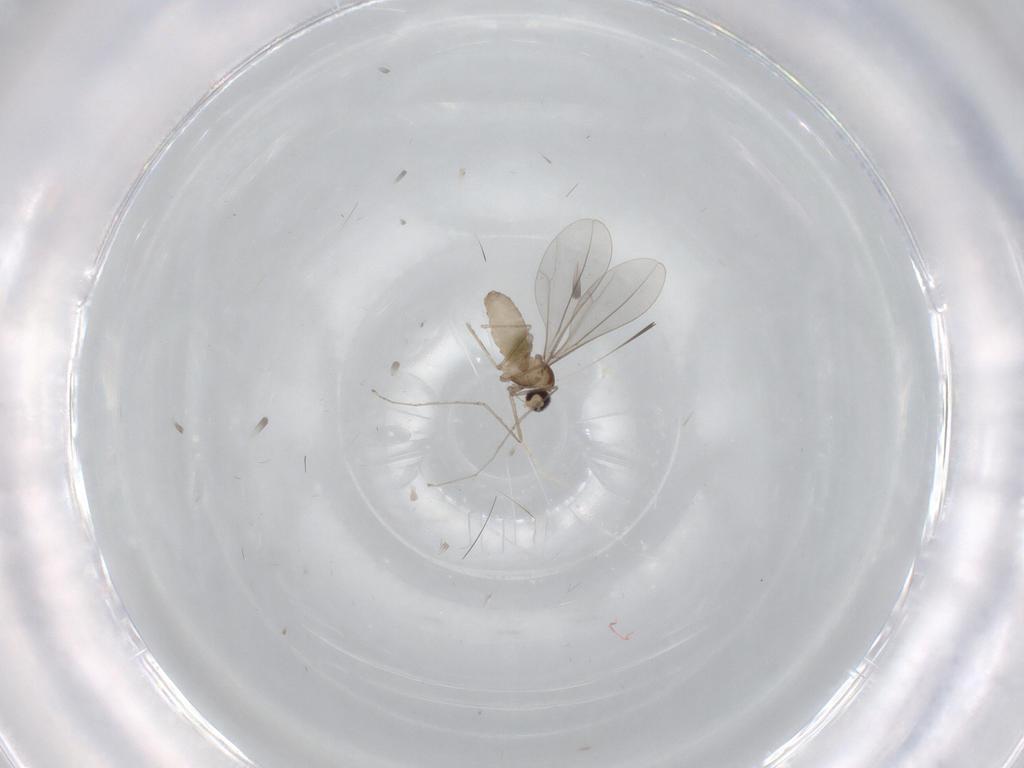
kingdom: Animalia
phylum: Arthropoda
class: Insecta
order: Diptera
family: Cecidomyiidae
